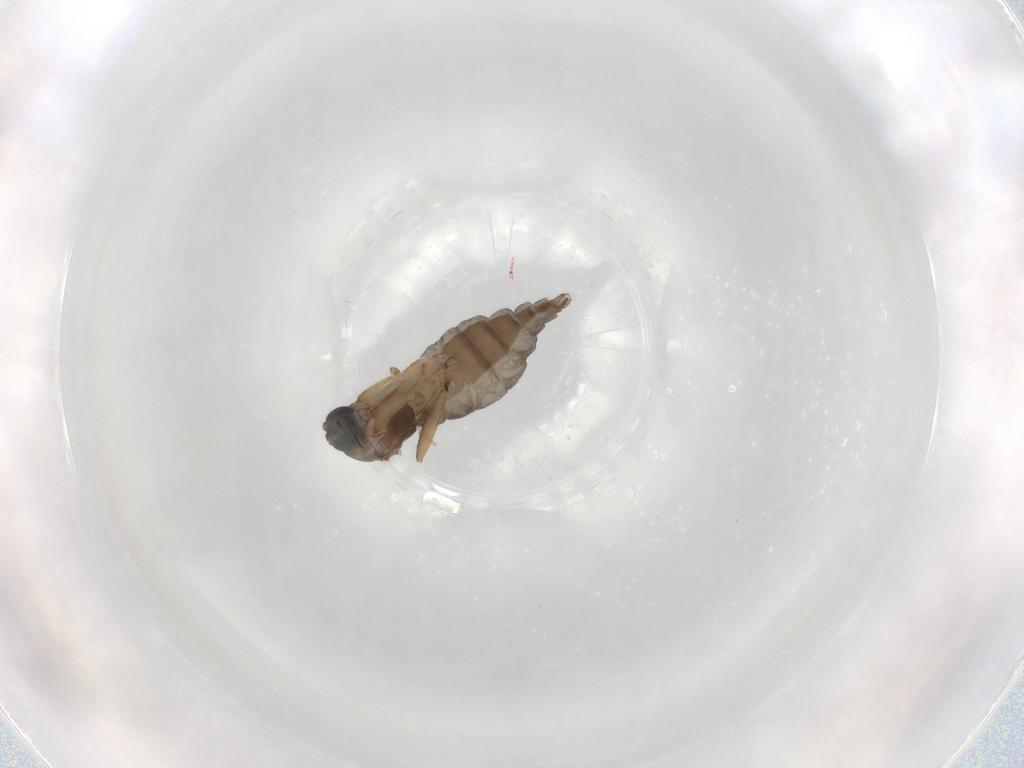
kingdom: Animalia
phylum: Arthropoda
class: Insecta
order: Diptera
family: Sciaridae
